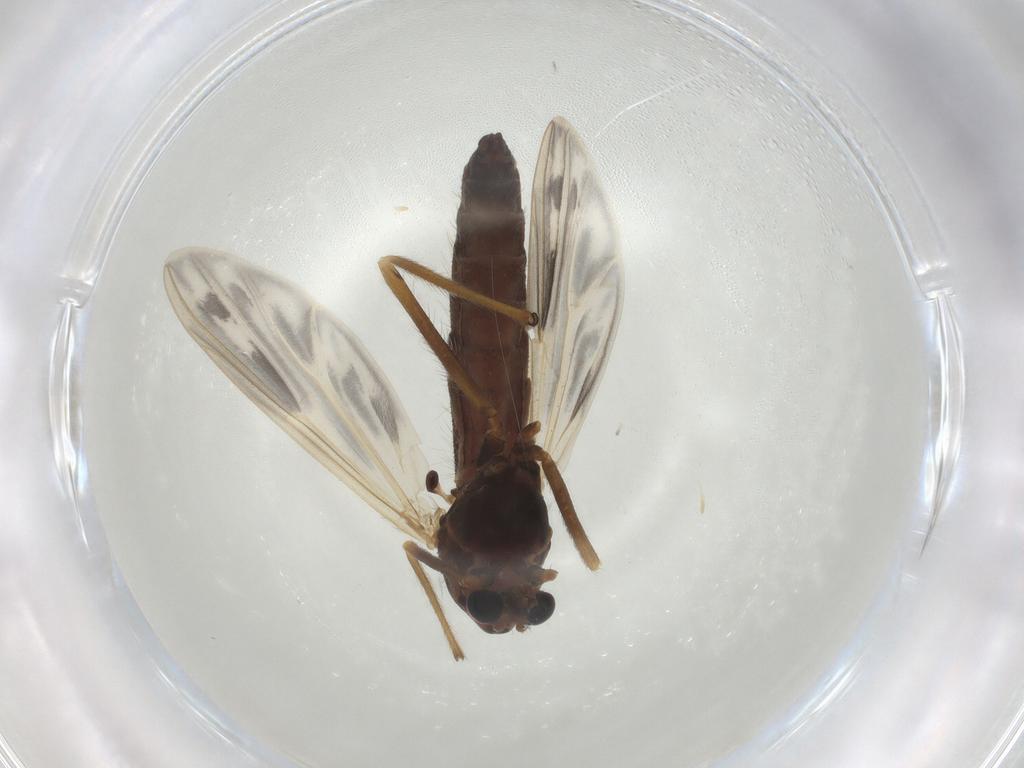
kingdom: Animalia
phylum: Arthropoda
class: Insecta
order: Diptera
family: Chironomidae
